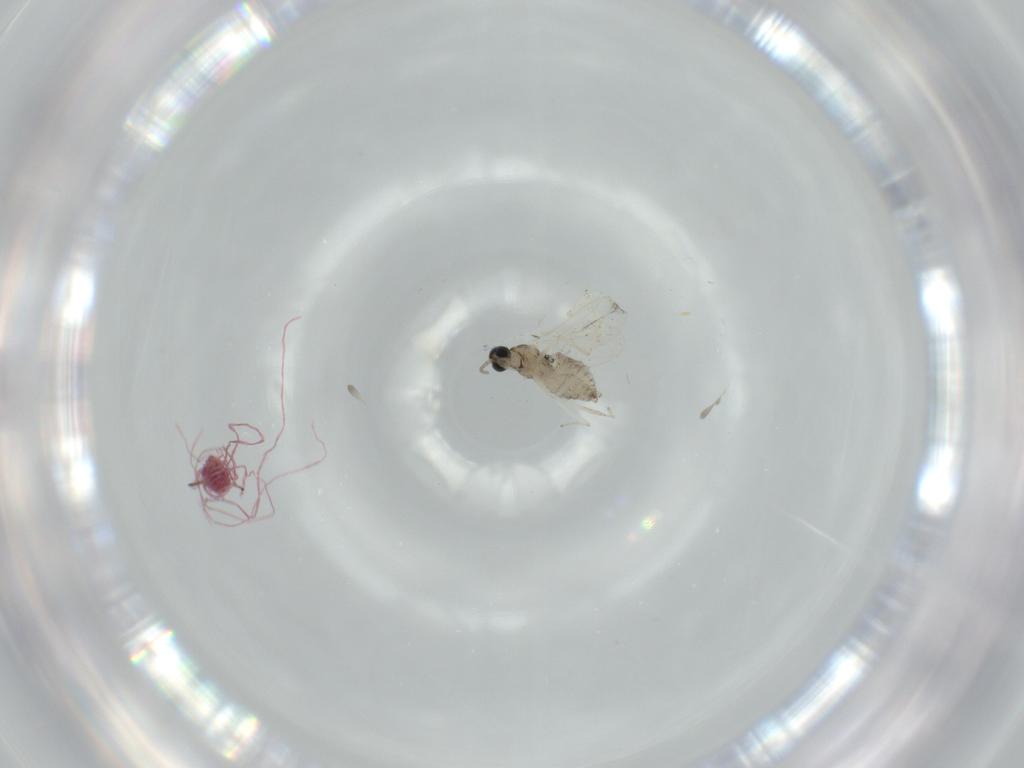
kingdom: Animalia
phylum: Arthropoda
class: Insecta
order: Diptera
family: Cecidomyiidae
